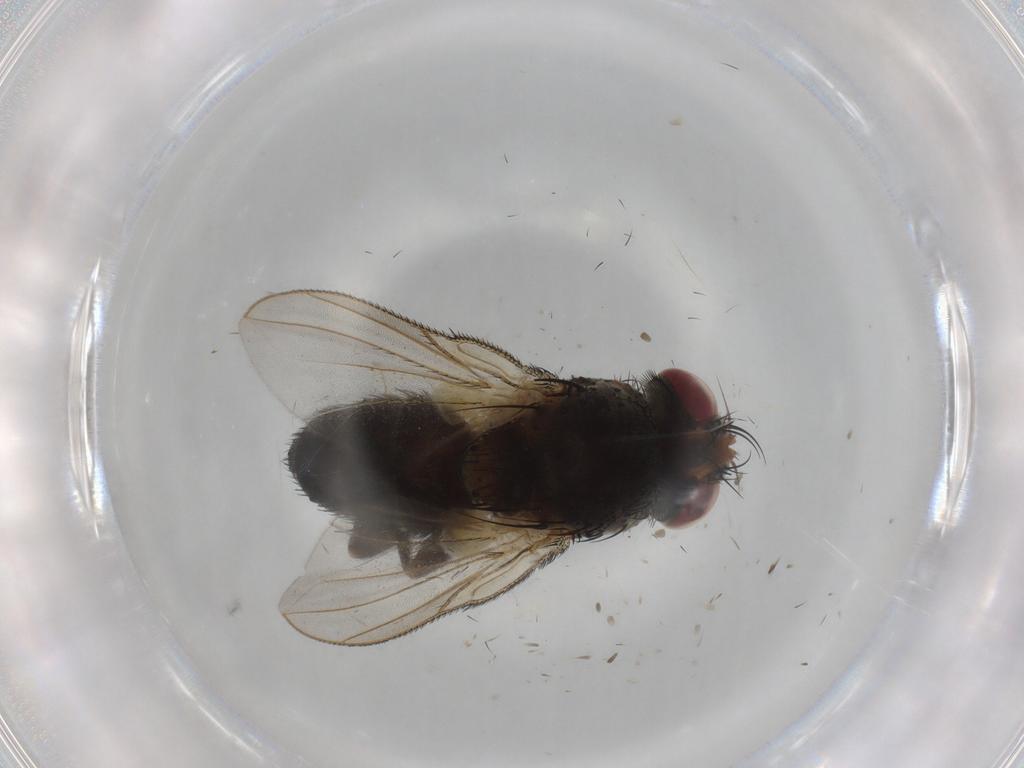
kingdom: Animalia
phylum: Arthropoda
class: Insecta
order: Diptera
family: Tachinidae
